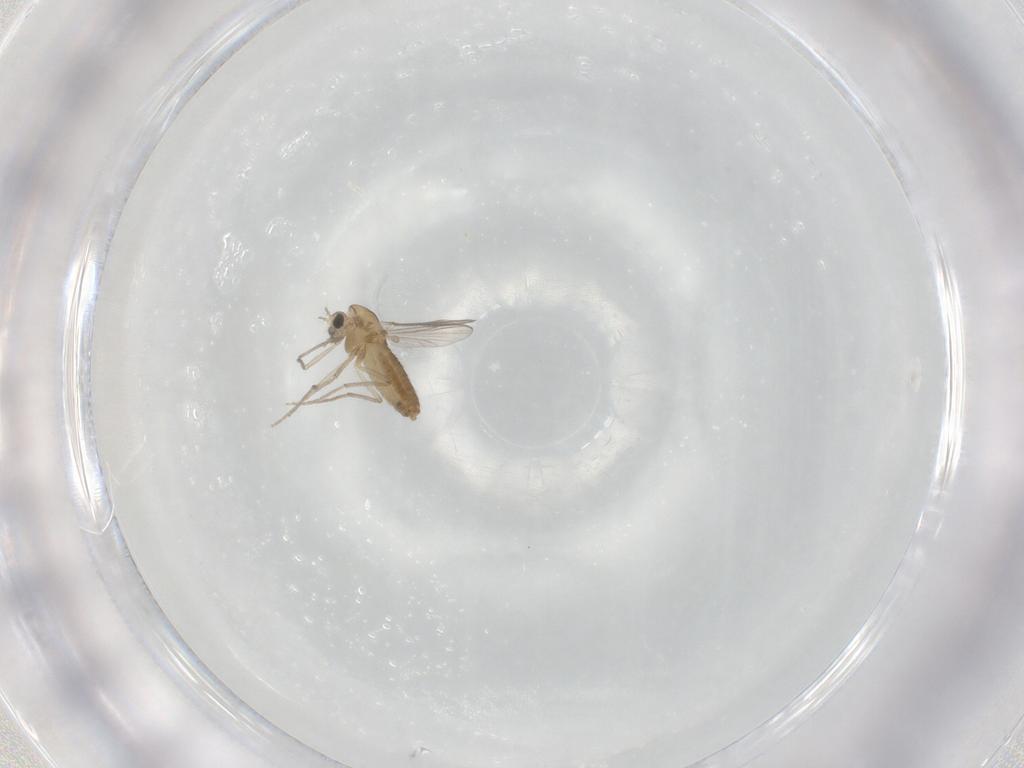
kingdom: Animalia
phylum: Arthropoda
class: Insecta
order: Diptera
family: Chironomidae
